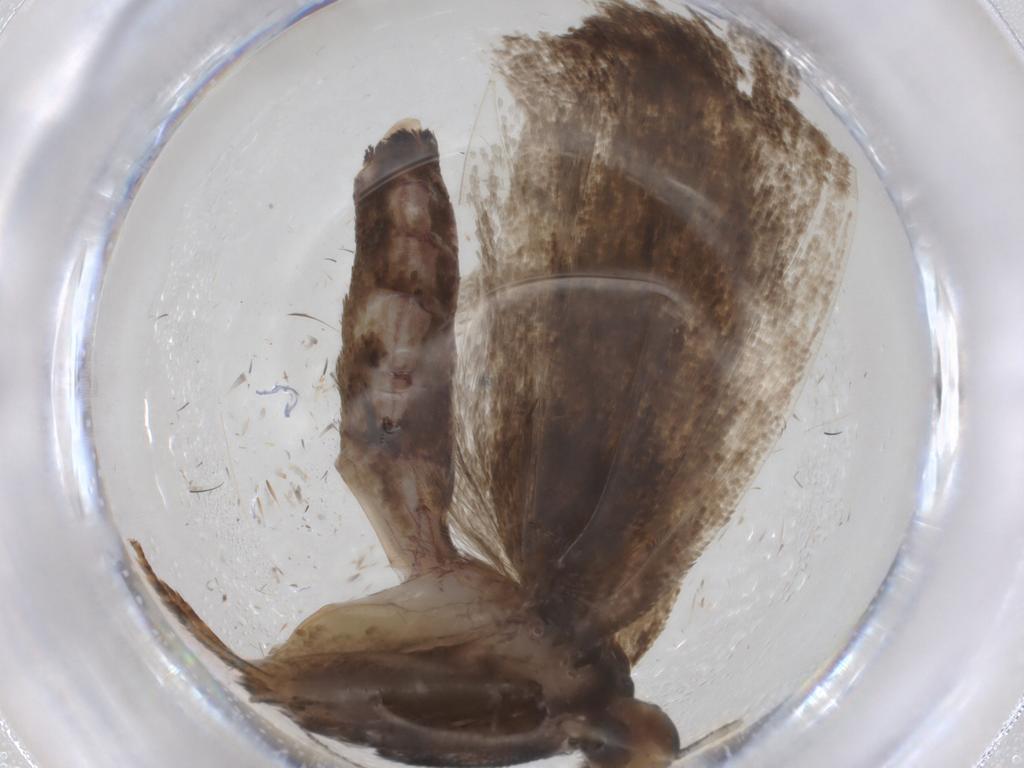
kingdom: Animalia
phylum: Arthropoda
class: Insecta
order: Lepidoptera
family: Gelechiidae
